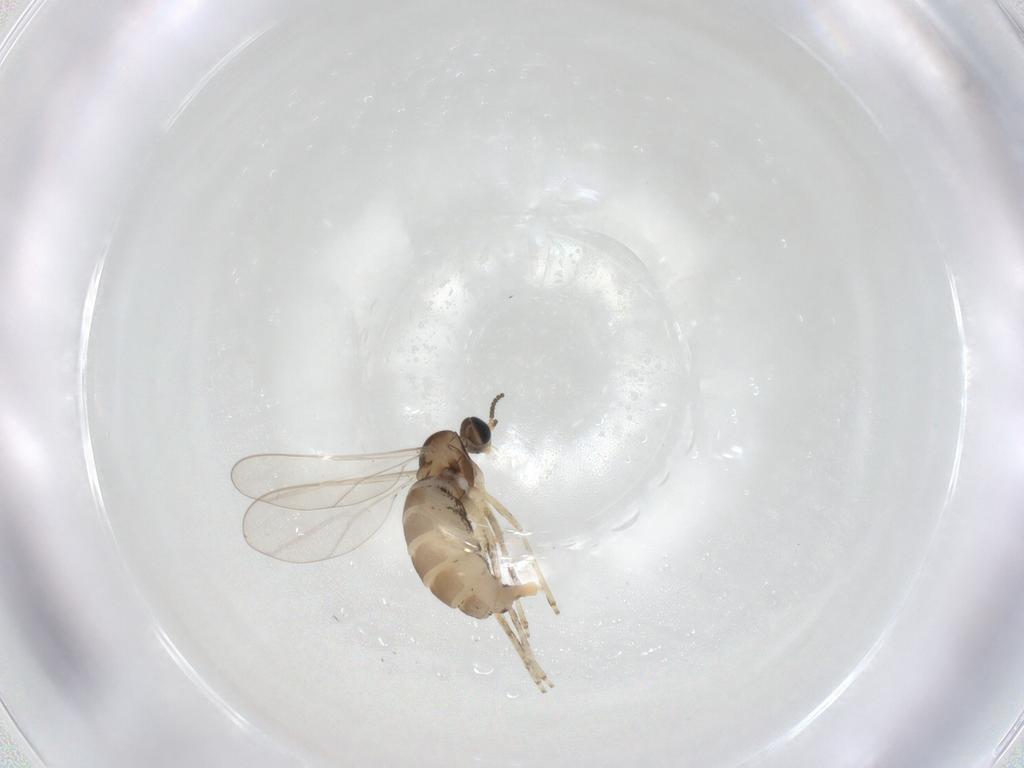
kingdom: Animalia
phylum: Arthropoda
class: Insecta
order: Diptera
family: Cecidomyiidae
